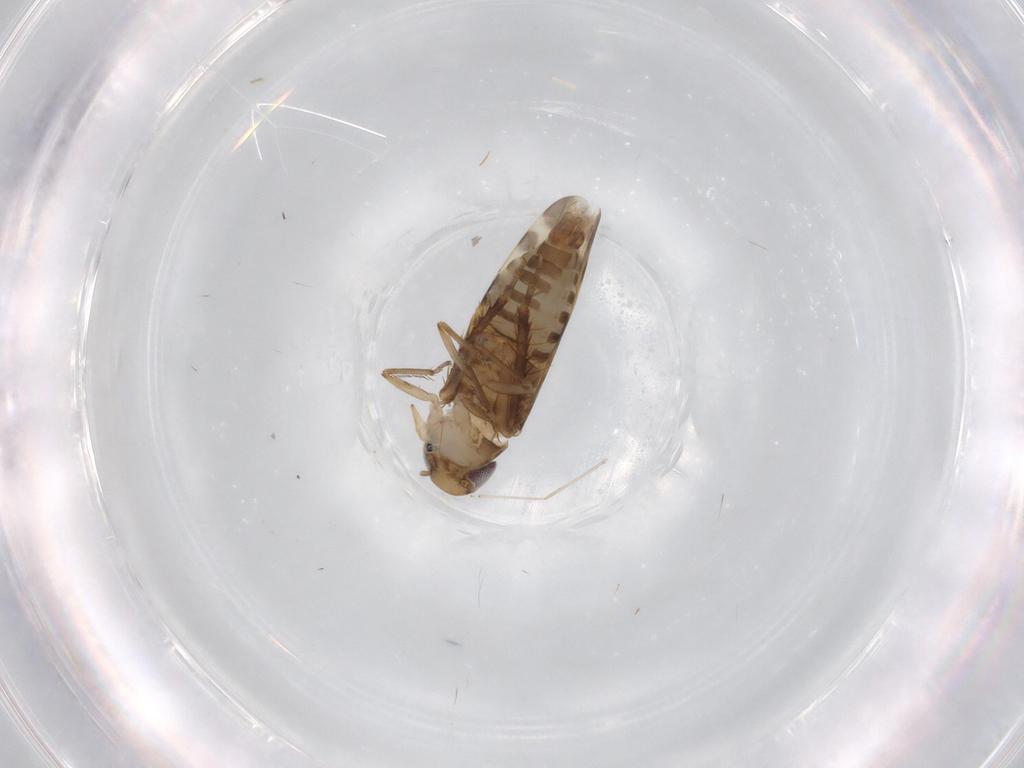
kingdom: Animalia
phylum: Arthropoda
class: Insecta
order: Hemiptera
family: Cicadellidae
